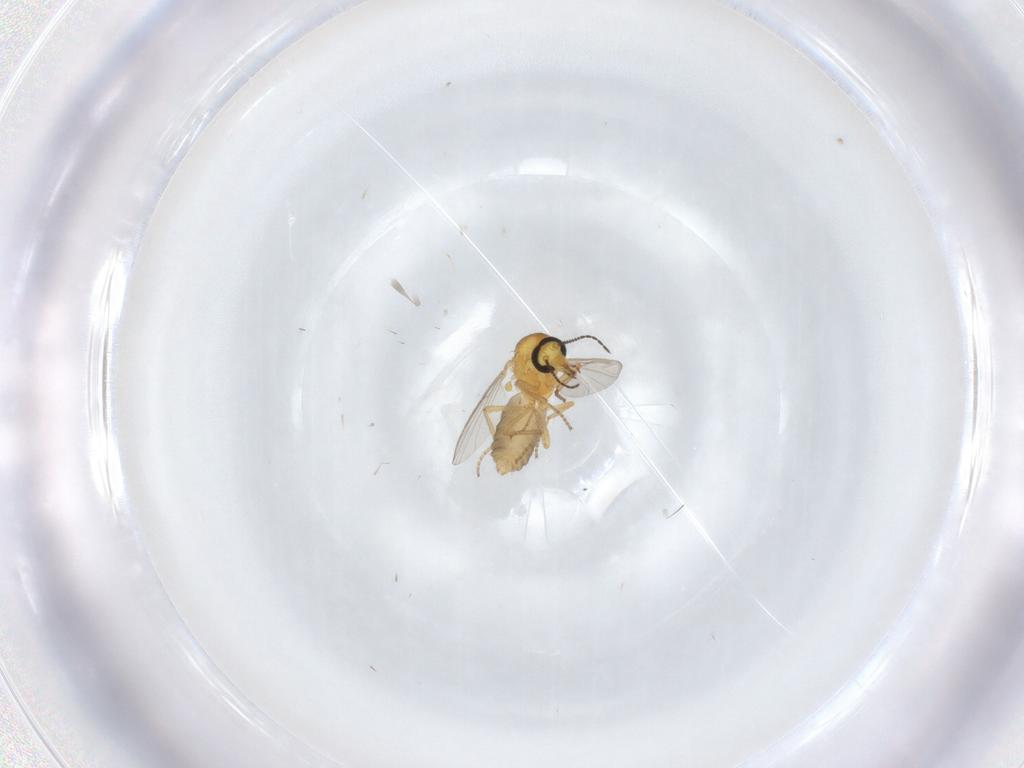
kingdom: Animalia
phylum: Arthropoda
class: Insecta
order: Diptera
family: Ceratopogonidae
